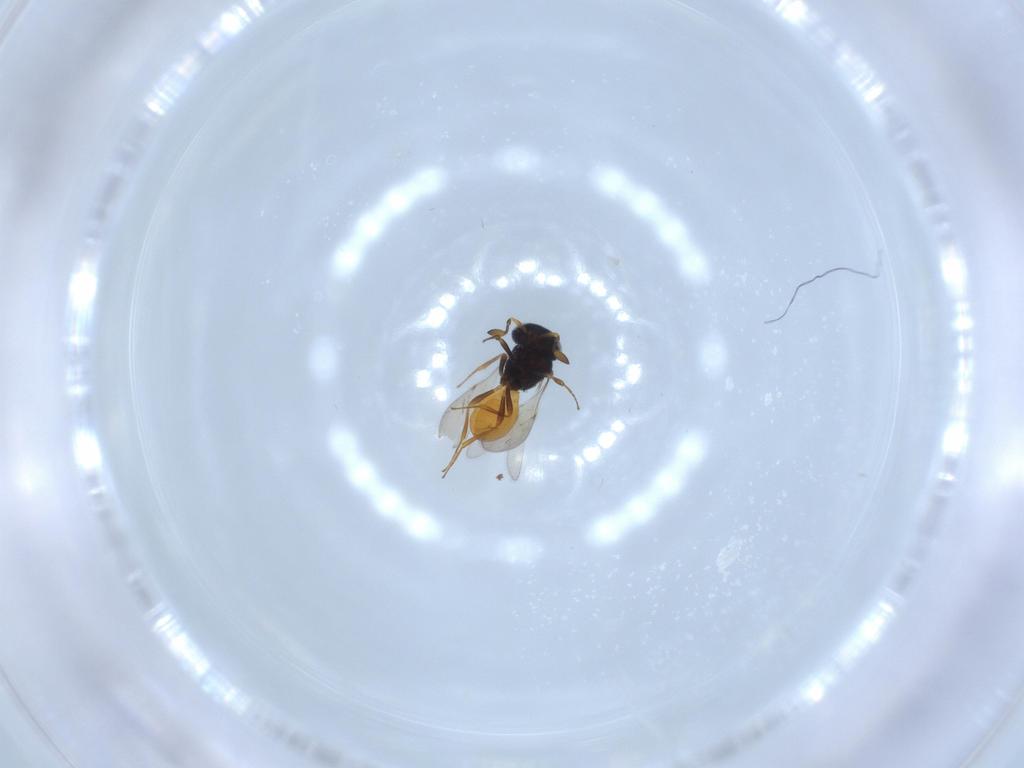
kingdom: Animalia
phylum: Arthropoda
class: Insecta
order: Hymenoptera
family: Scelionidae
